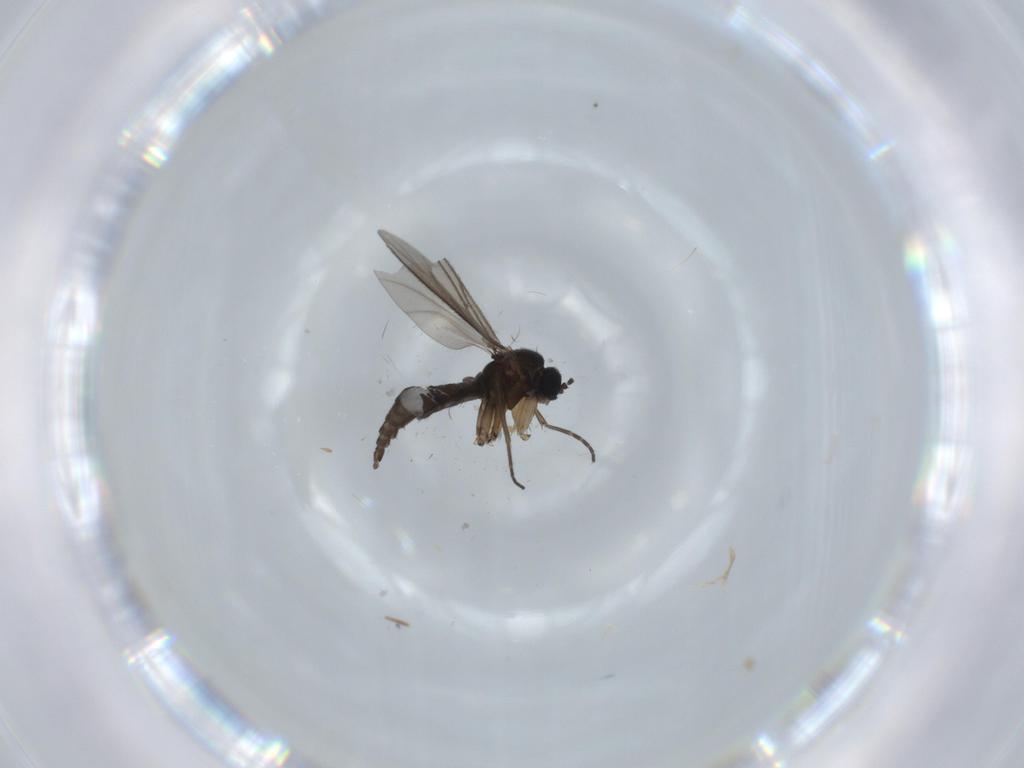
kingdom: Animalia
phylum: Arthropoda
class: Insecta
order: Diptera
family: Sciaridae
